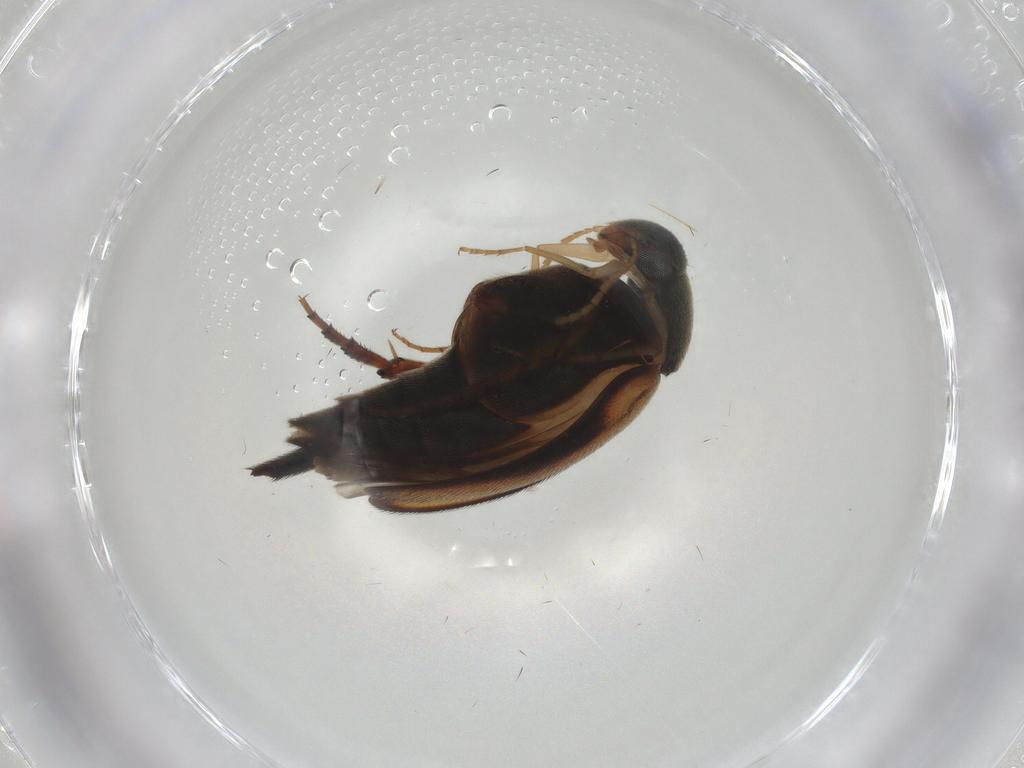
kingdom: Animalia
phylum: Arthropoda
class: Insecta
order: Coleoptera
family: Mordellidae
